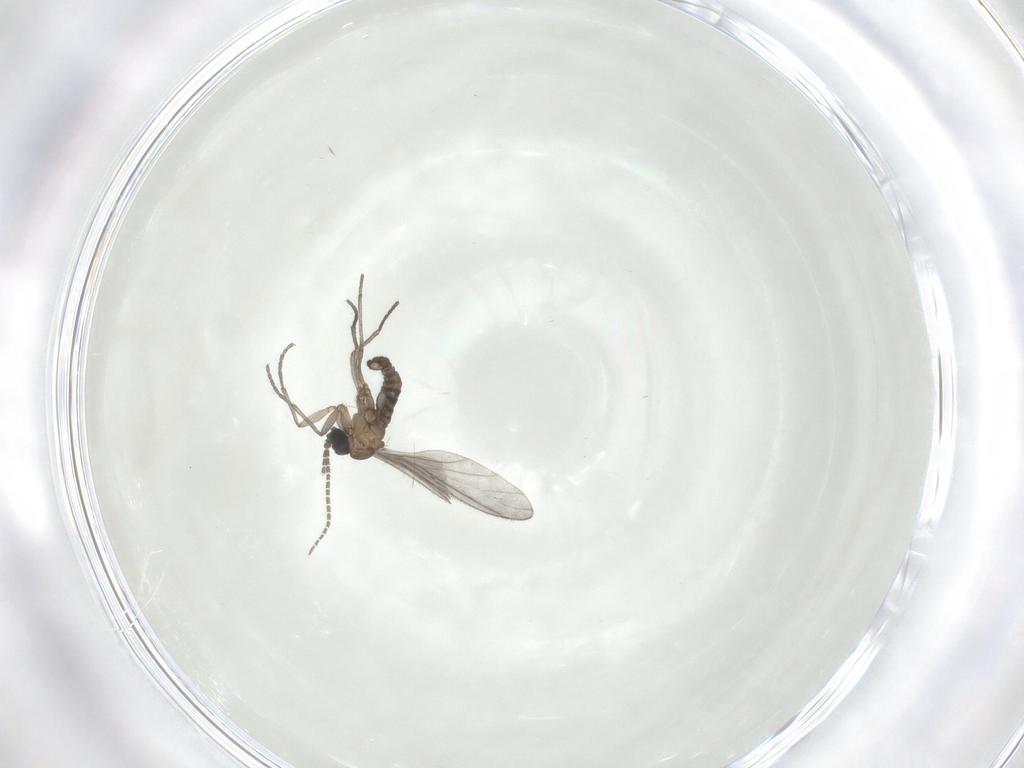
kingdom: Animalia
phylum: Arthropoda
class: Insecta
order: Diptera
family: Sciaridae
